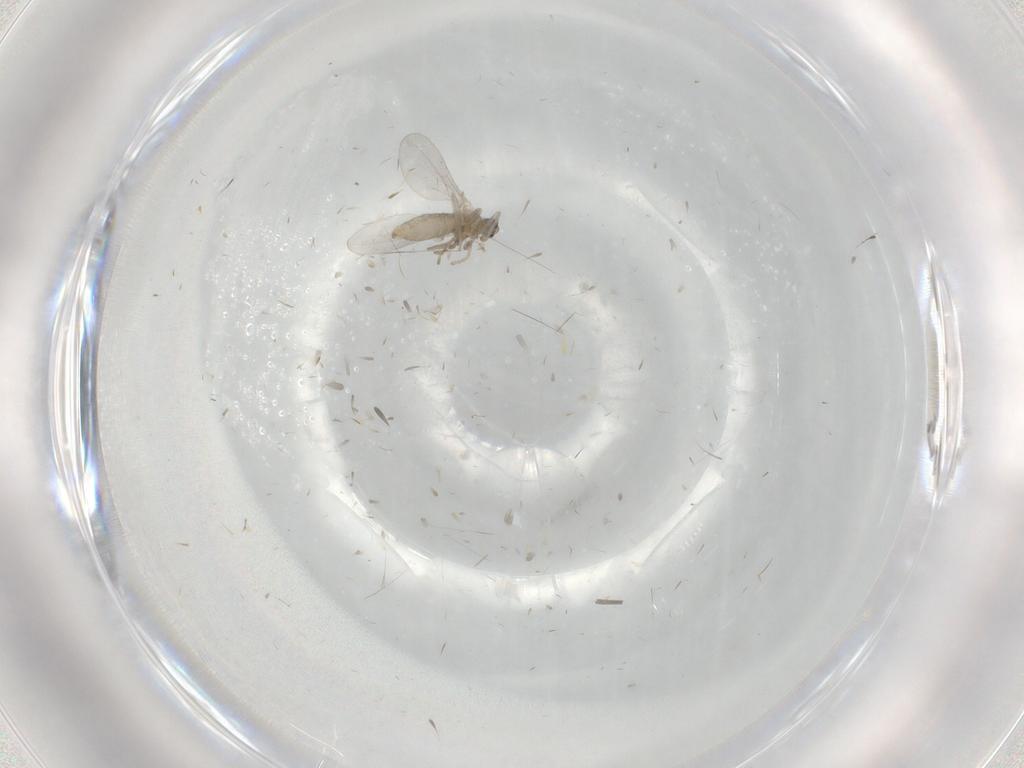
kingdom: Animalia
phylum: Arthropoda
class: Insecta
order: Diptera
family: Cecidomyiidae
